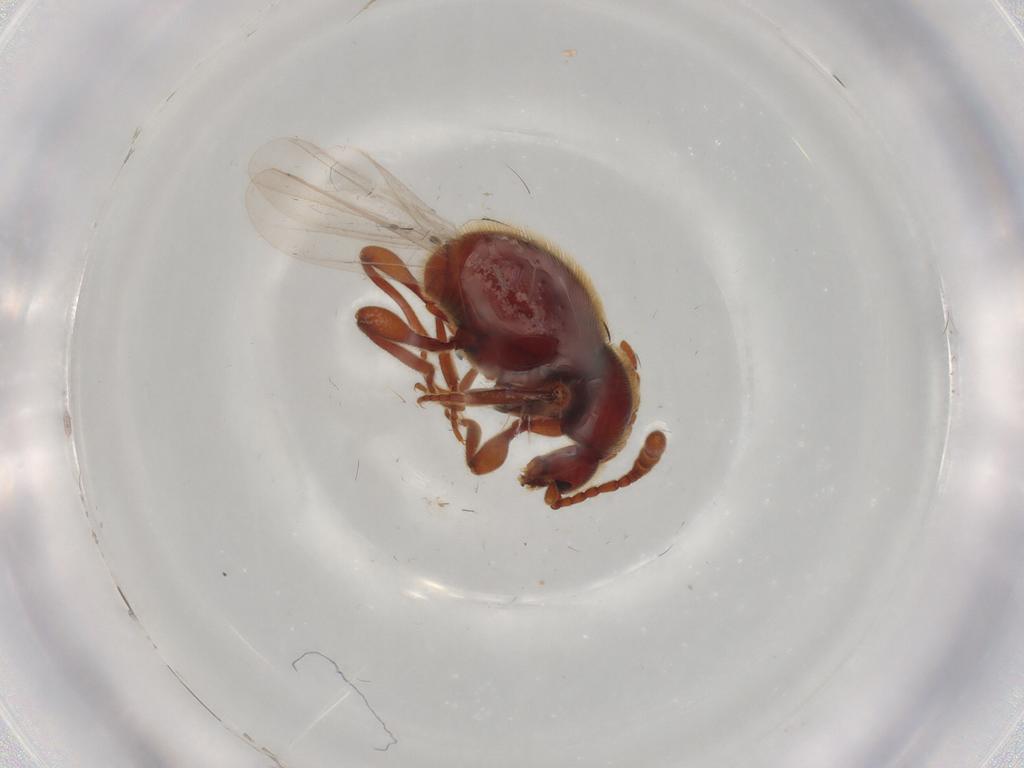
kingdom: Animalia
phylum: Arthropoda
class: Insecta
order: Coleoptera
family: Staphylinidae
